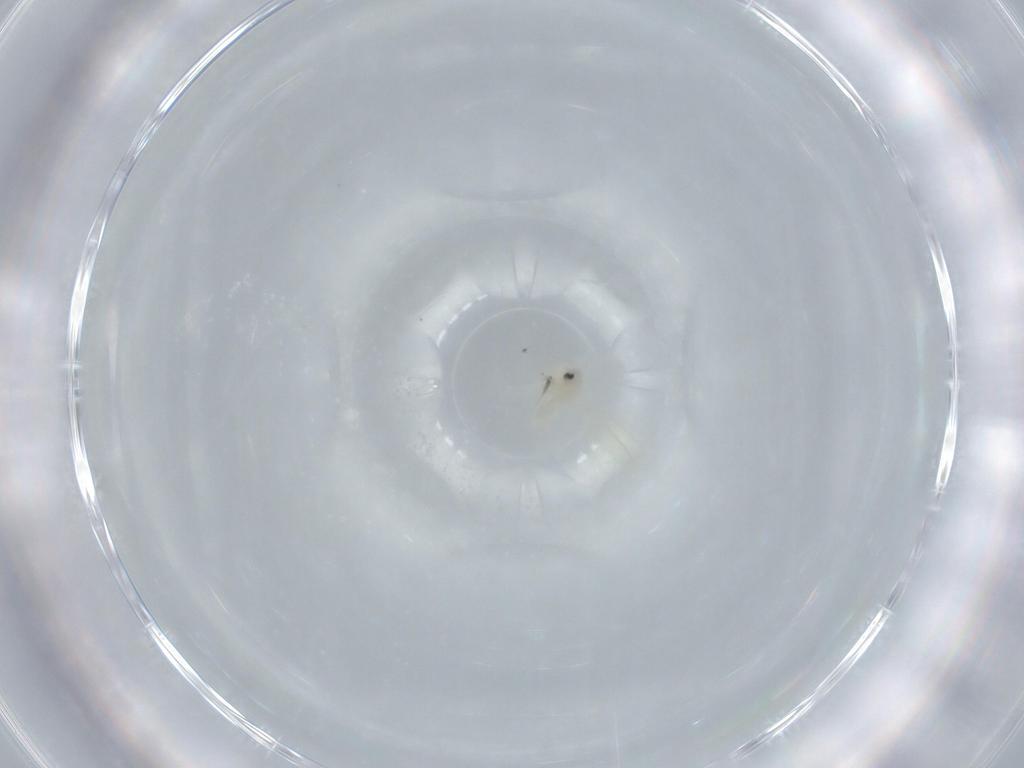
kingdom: Animalia
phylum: Arthropoda
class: Insecta
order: Hemiptera
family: Aleyrodidae
